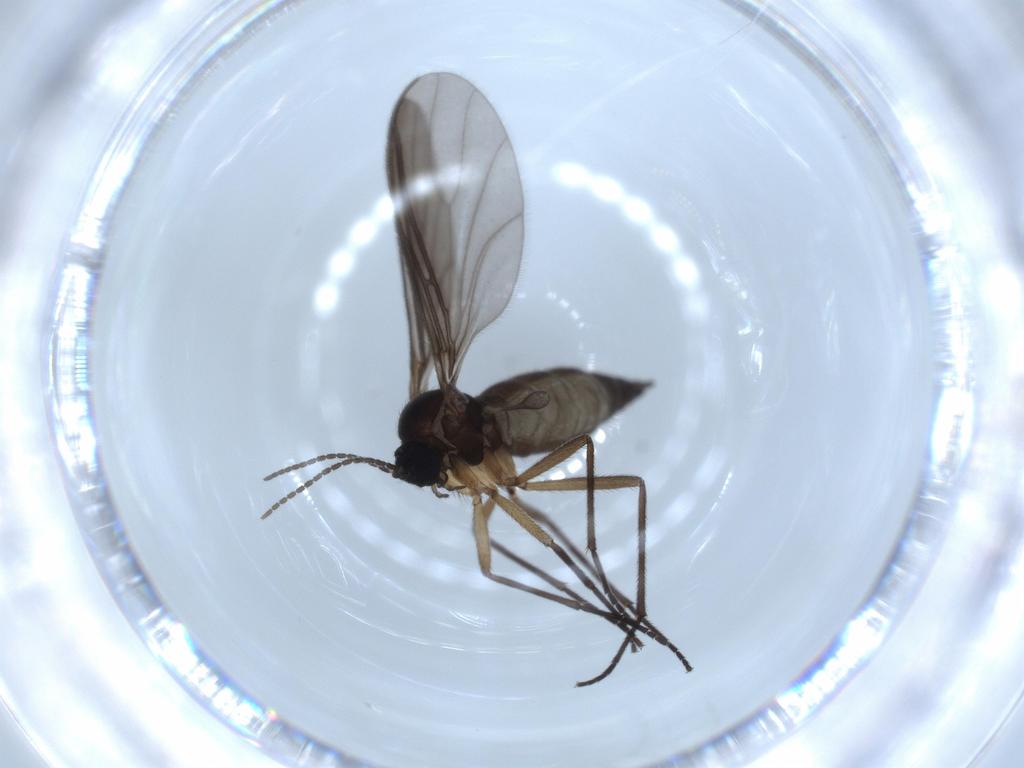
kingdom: Animalia
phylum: Arthropoda
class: Insecta
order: Diptera
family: Sciaridae
